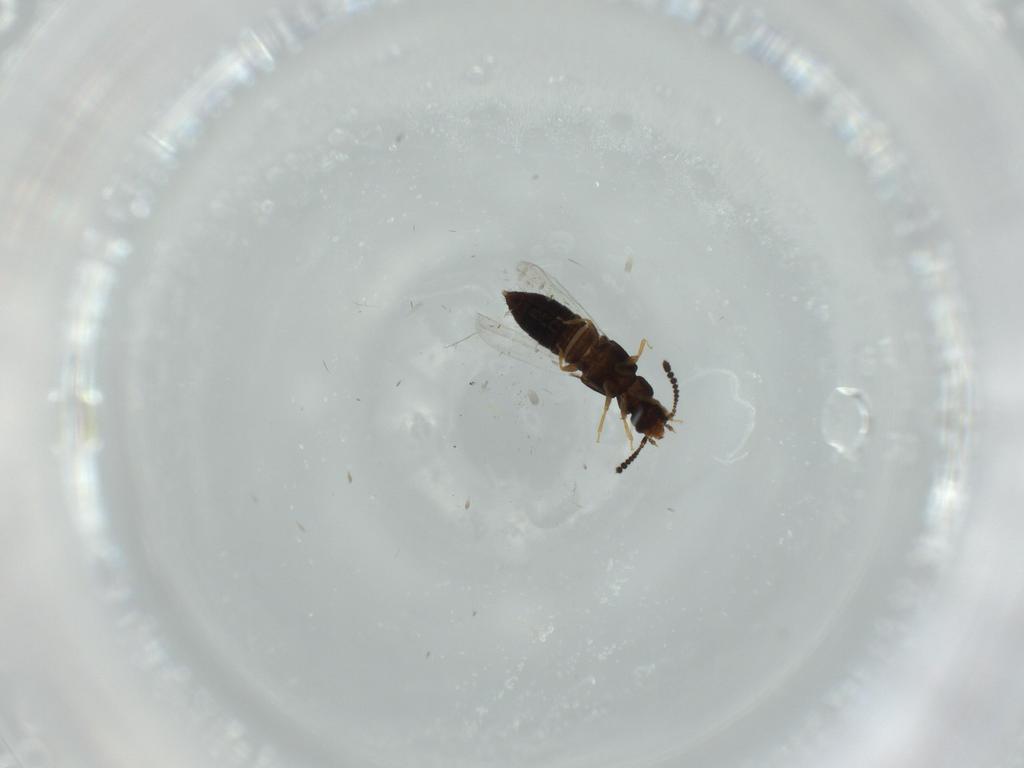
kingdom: Animalia
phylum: Arthropoda
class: Insecta
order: Coleoptera
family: Staphylinidae
